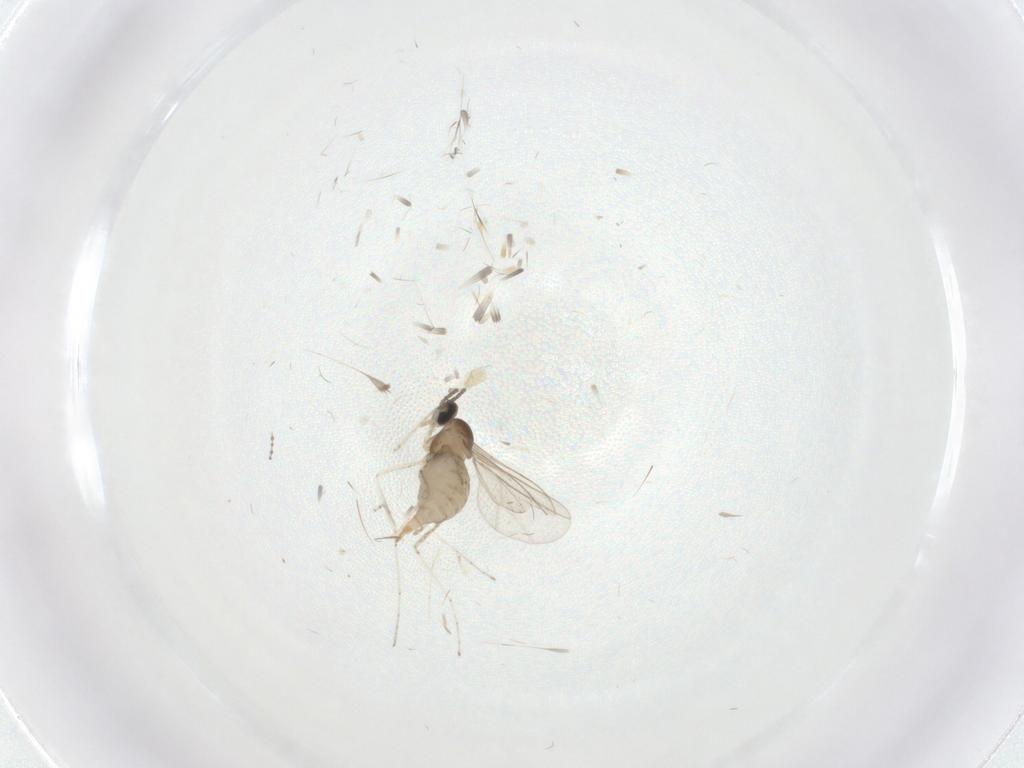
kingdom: Animalia
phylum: Arthropoda
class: Insecta
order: Diptera
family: Cecidomyiidae
